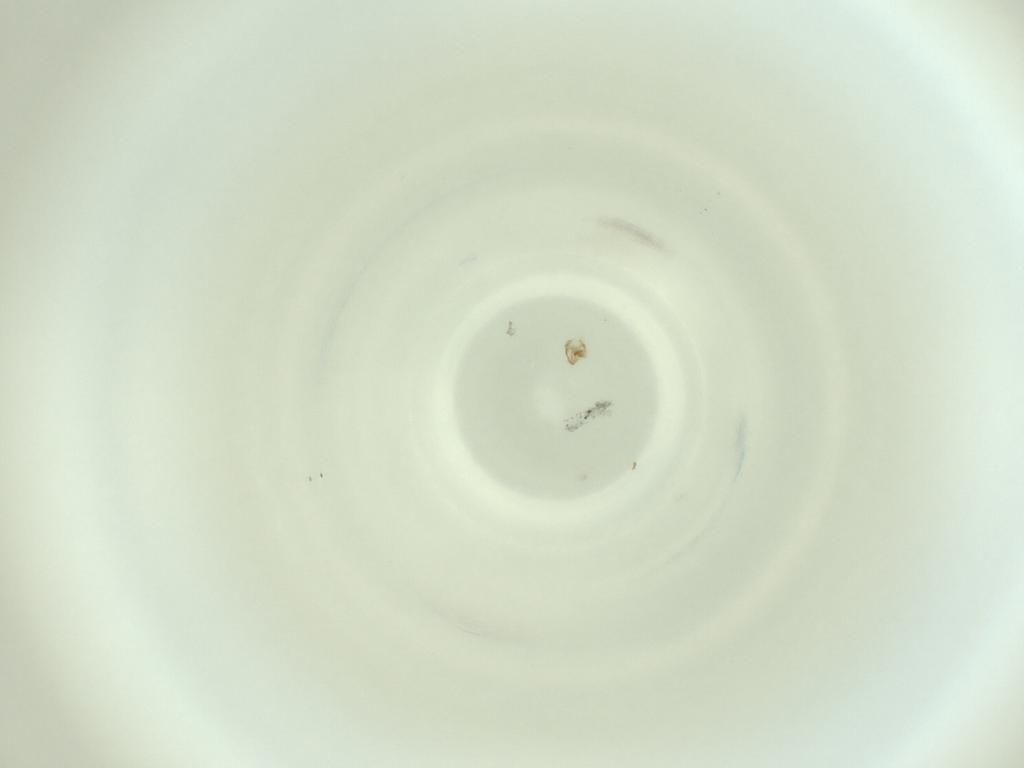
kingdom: Animalia
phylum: Arthropoda
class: Insecta
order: Diptera
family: Cecidomyiidae
